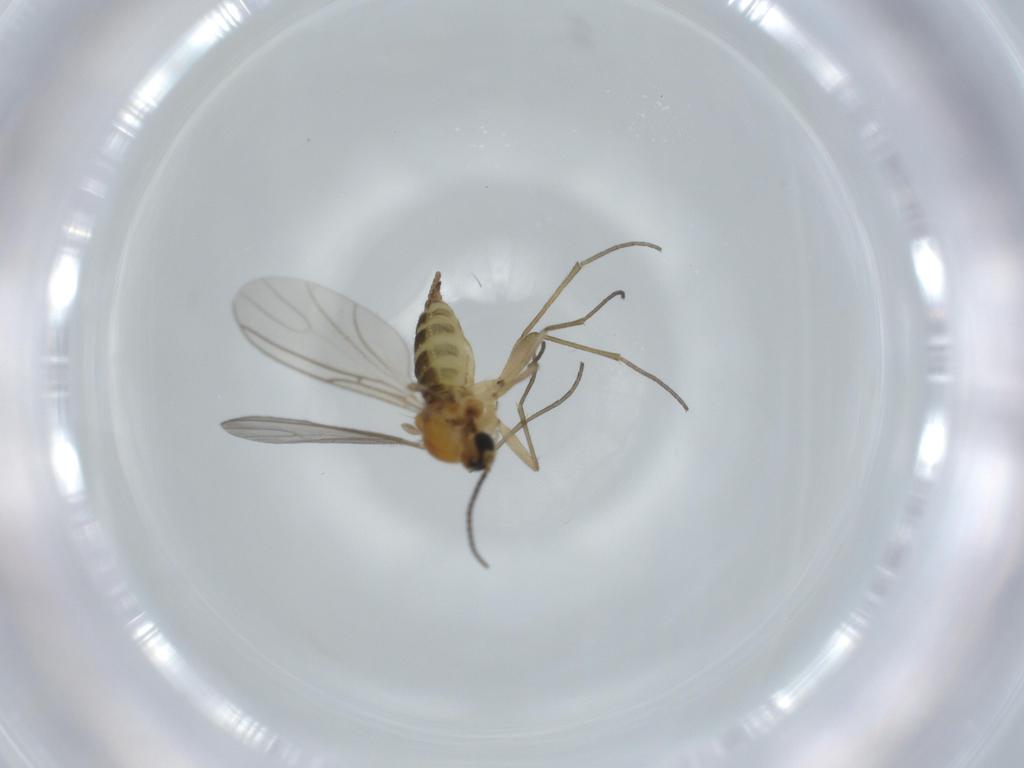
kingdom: Animalia
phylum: Arthropoda
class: Insecta
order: Diptera
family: Sciaridae
